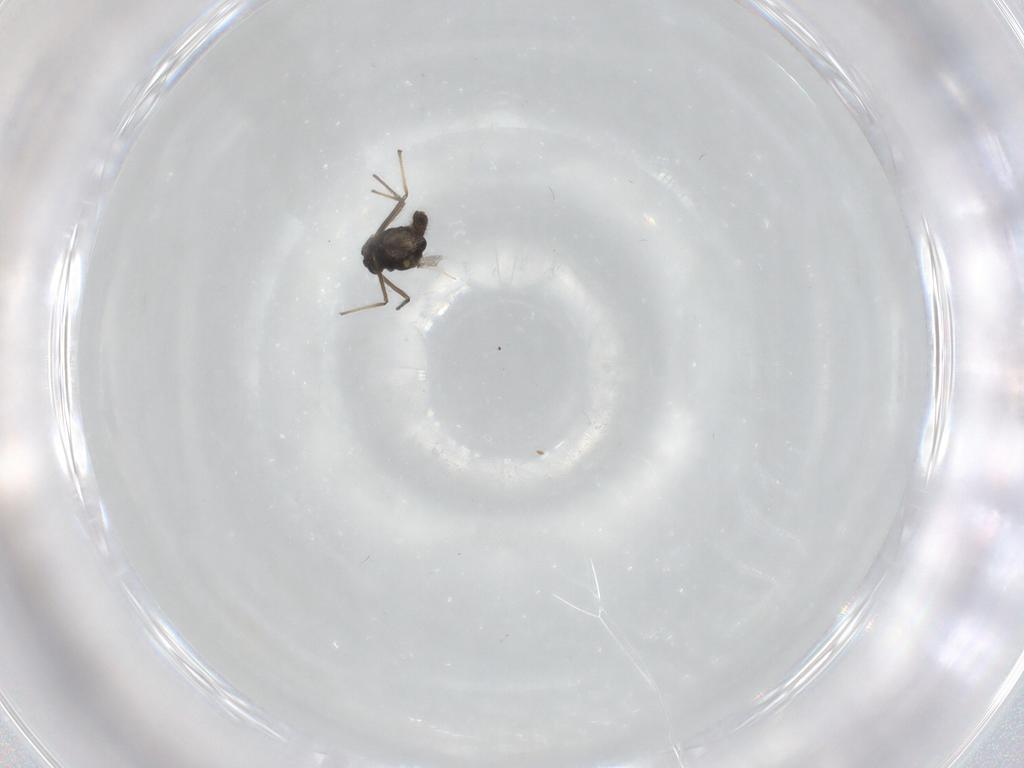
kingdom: Animalia
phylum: Arthropoda
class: Insecta
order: Diptera
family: Chironomidae
